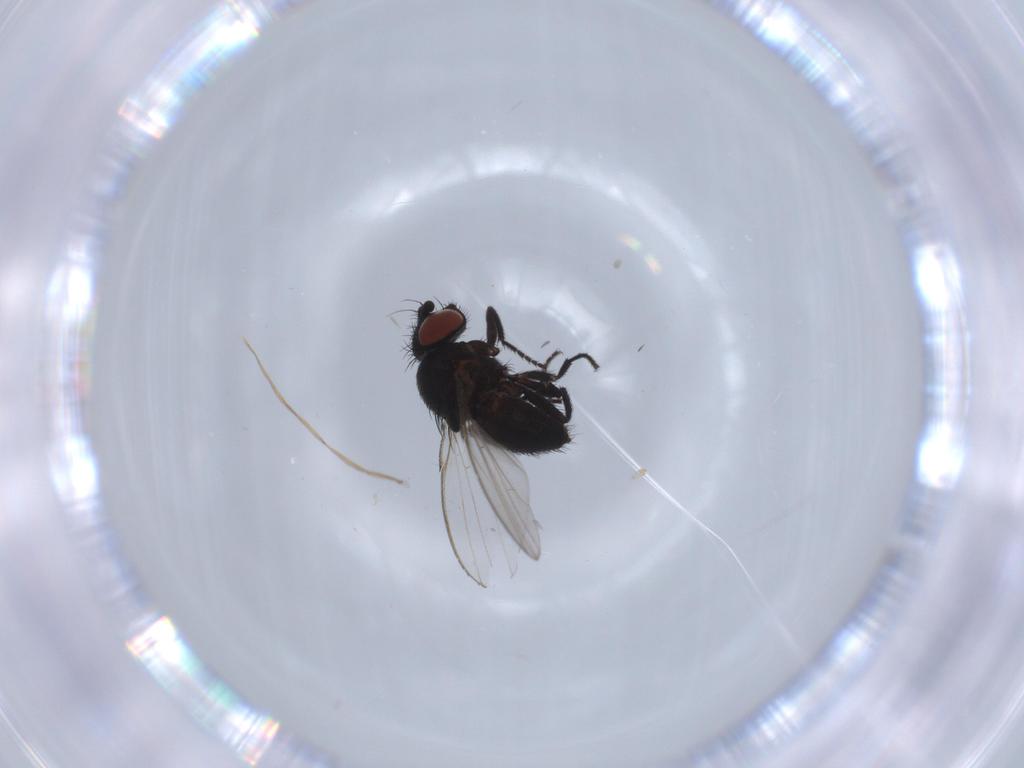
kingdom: Animalia
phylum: Arthropoda
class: Insecta
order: Diptera
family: Milichiidae
